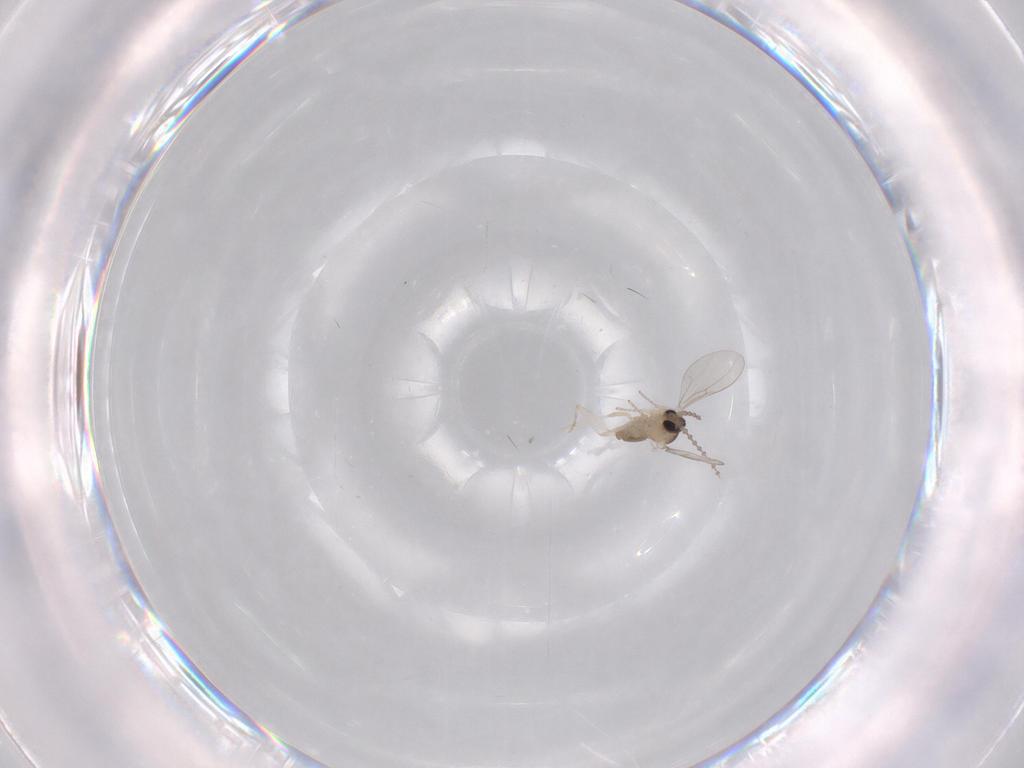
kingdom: Animalia
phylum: Arthropoda
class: Insecta
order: Diptera
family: Cecidomyiidae
